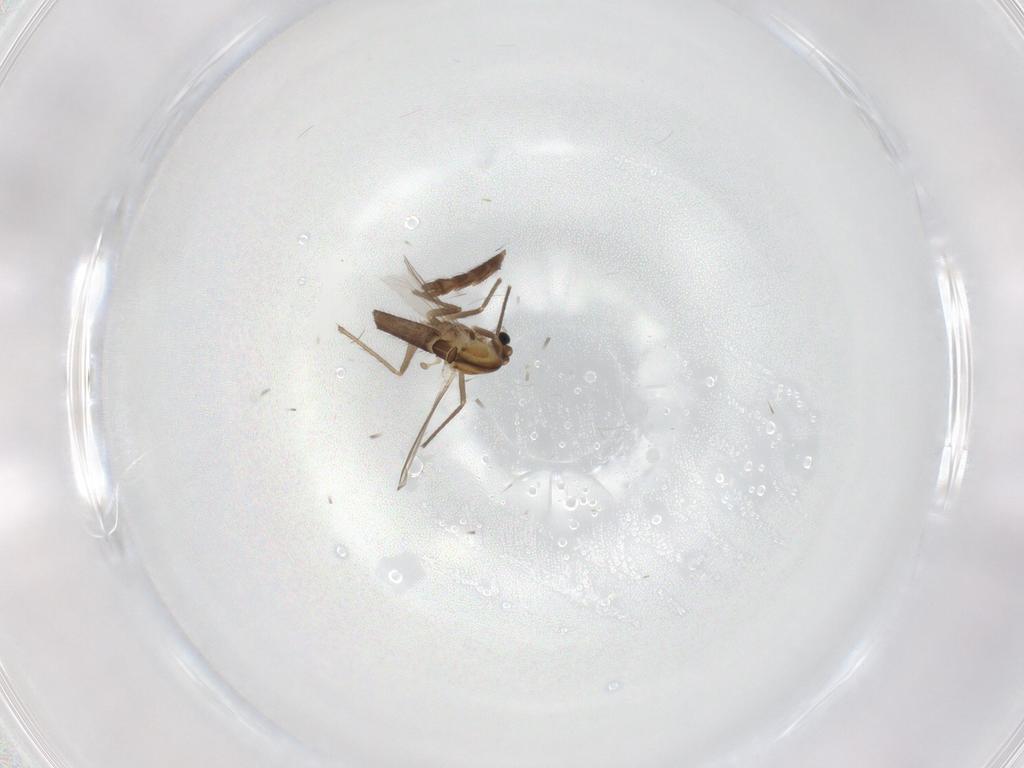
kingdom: Animalia
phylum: Arthropoda
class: Insecta
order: Diptera
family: Chironomidae
